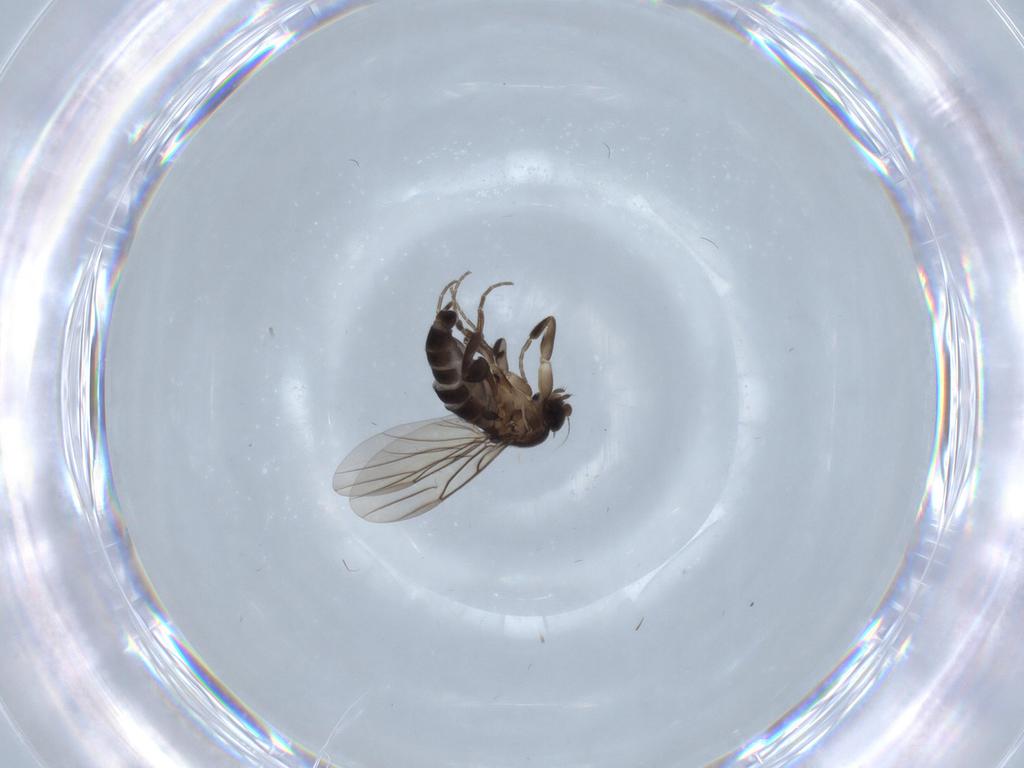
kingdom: Animalia
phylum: Arthropoda
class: Insecta
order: Diptera
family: Phoridae
